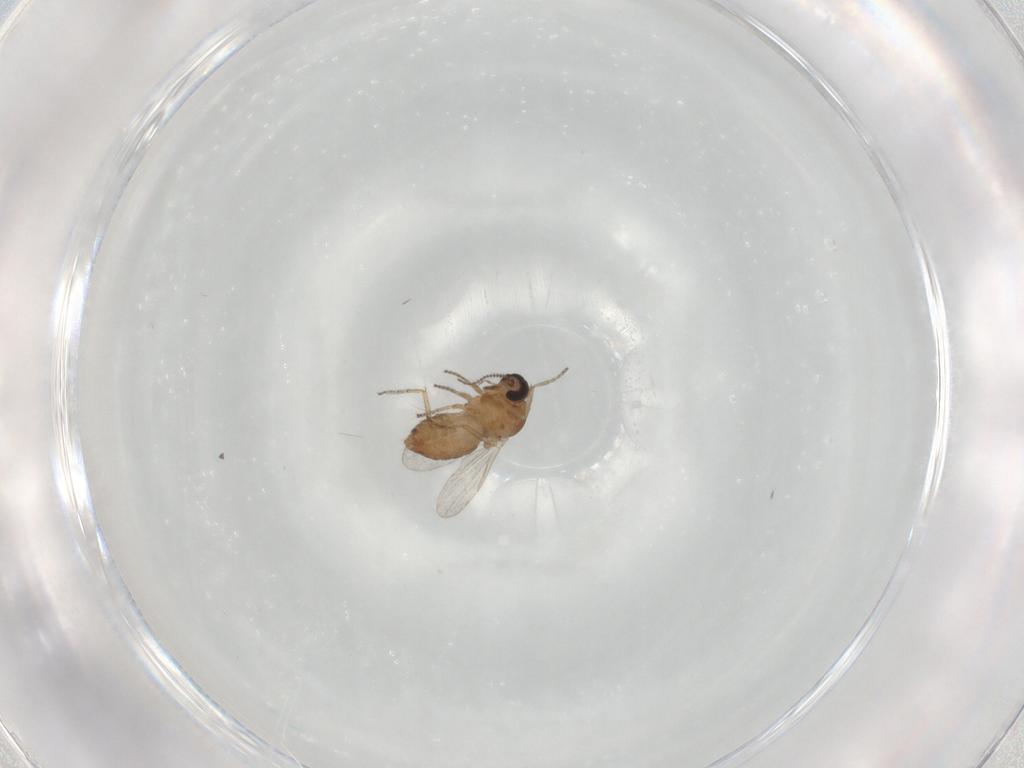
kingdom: Animalia
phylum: Arthropoda
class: Insecta
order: Diptera
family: Ceratopogonidae
